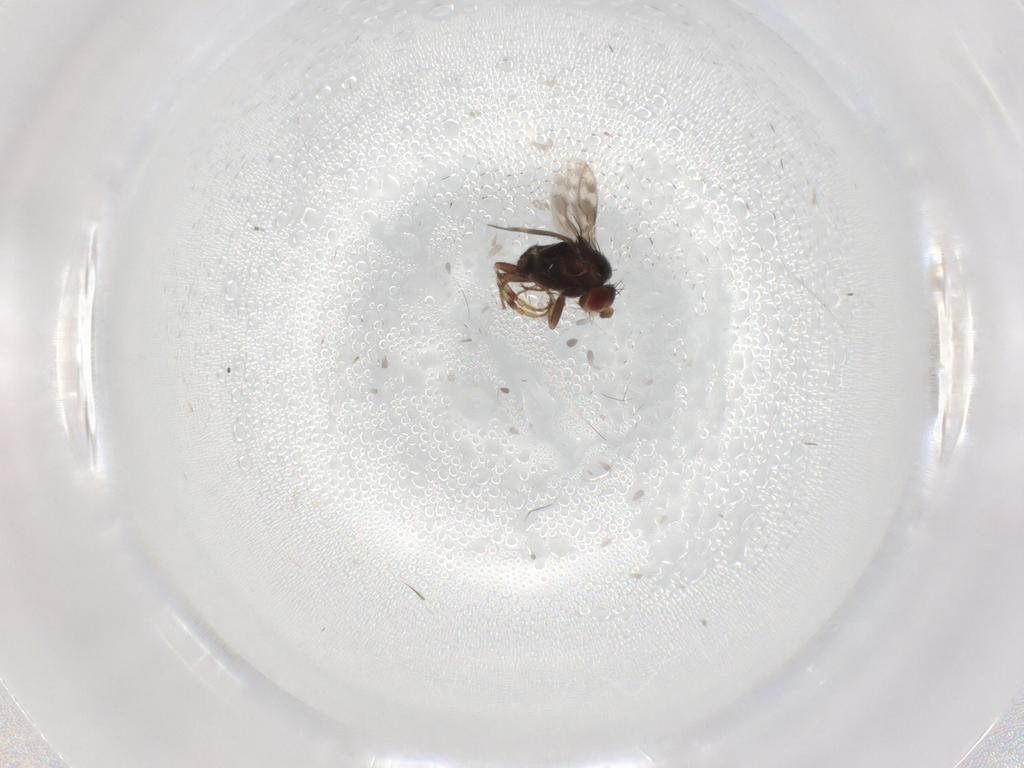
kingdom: Animalia
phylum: Arthropoda
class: Insecta
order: Diptera
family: Sphaeroceridae
